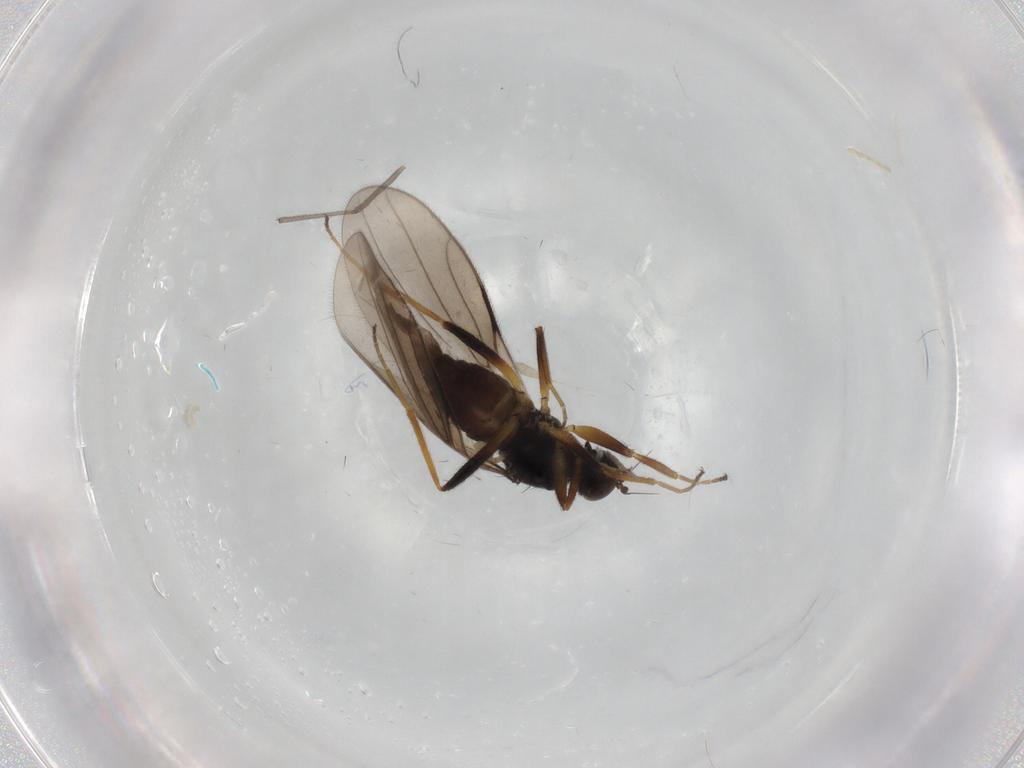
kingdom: Animalia
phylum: Arthropoda
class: Insecta
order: Diptera
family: Hybotidae
